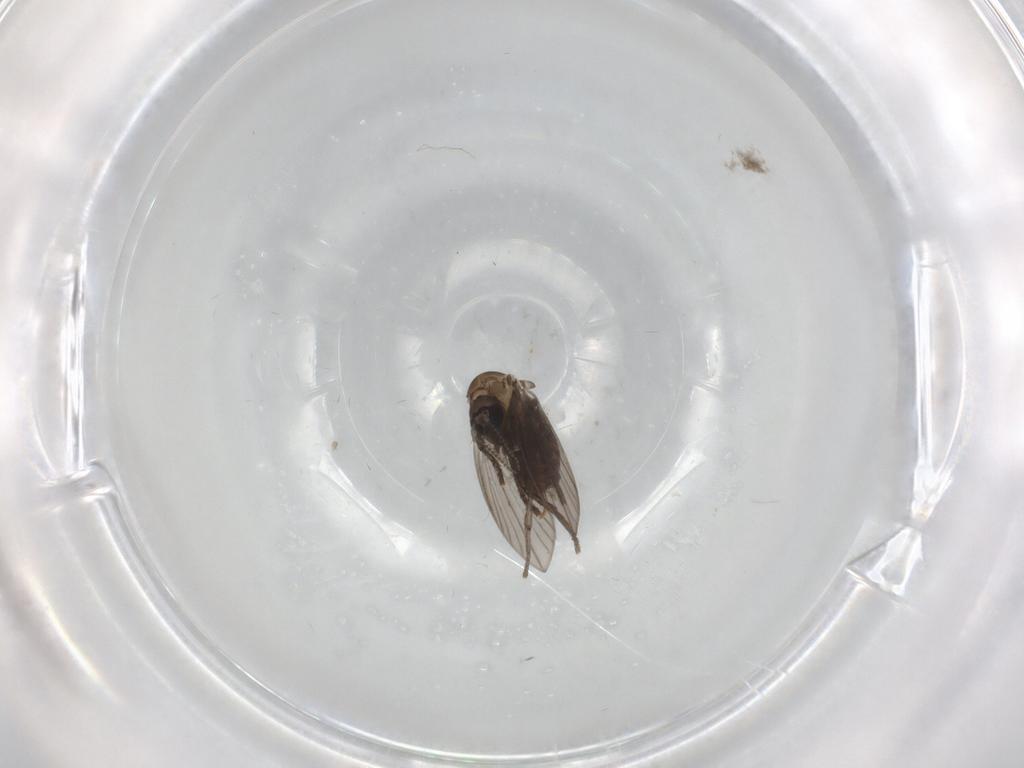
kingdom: Animalia
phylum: Arthropoda
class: Insecta
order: Diptera
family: Psychodidae
